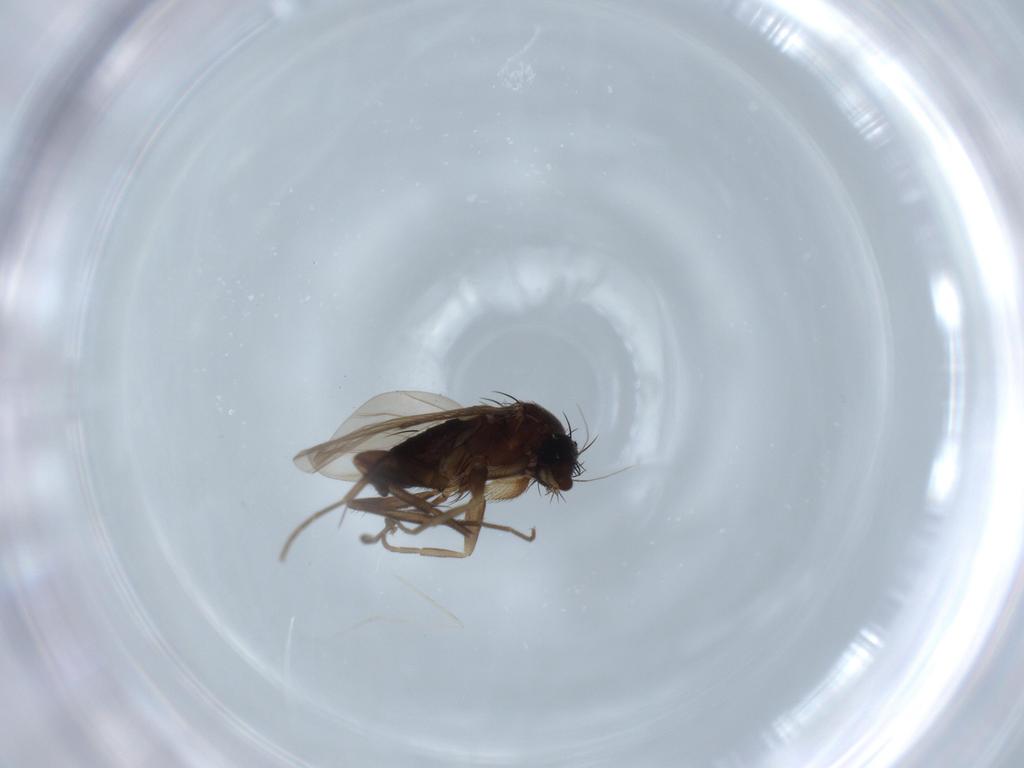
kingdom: Animalia
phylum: Arthropoda
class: Insecta
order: Diptera
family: Phoridae
